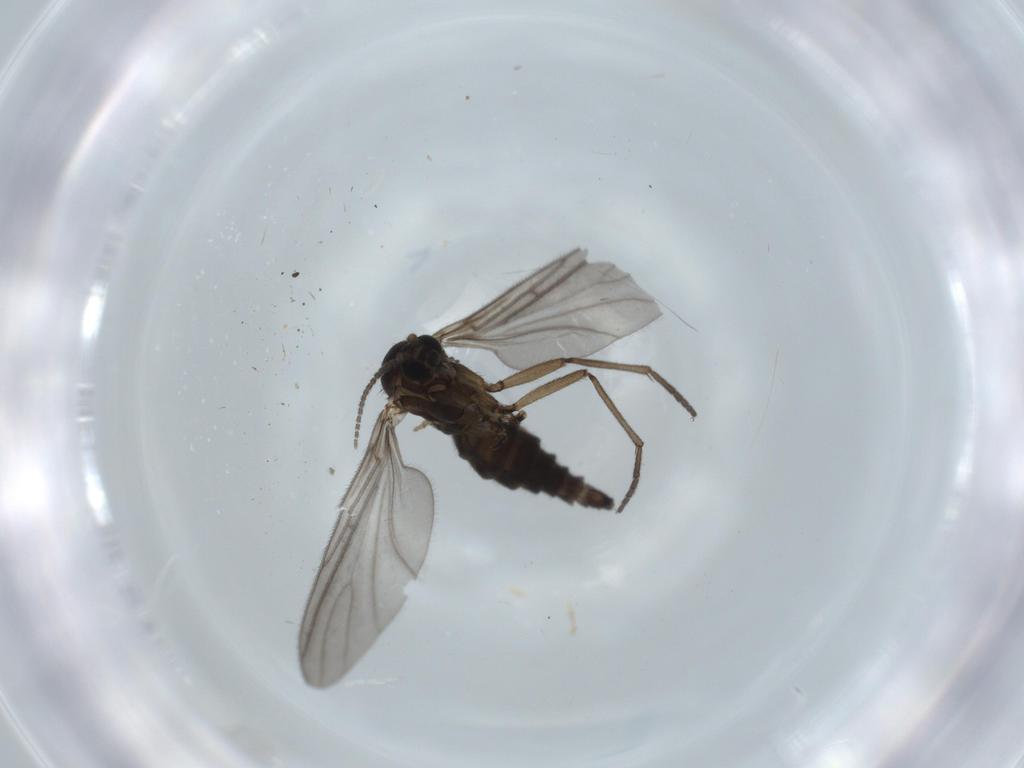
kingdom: Animalia
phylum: Arthropoda
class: Insecta
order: Diptera
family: Sciaridae
